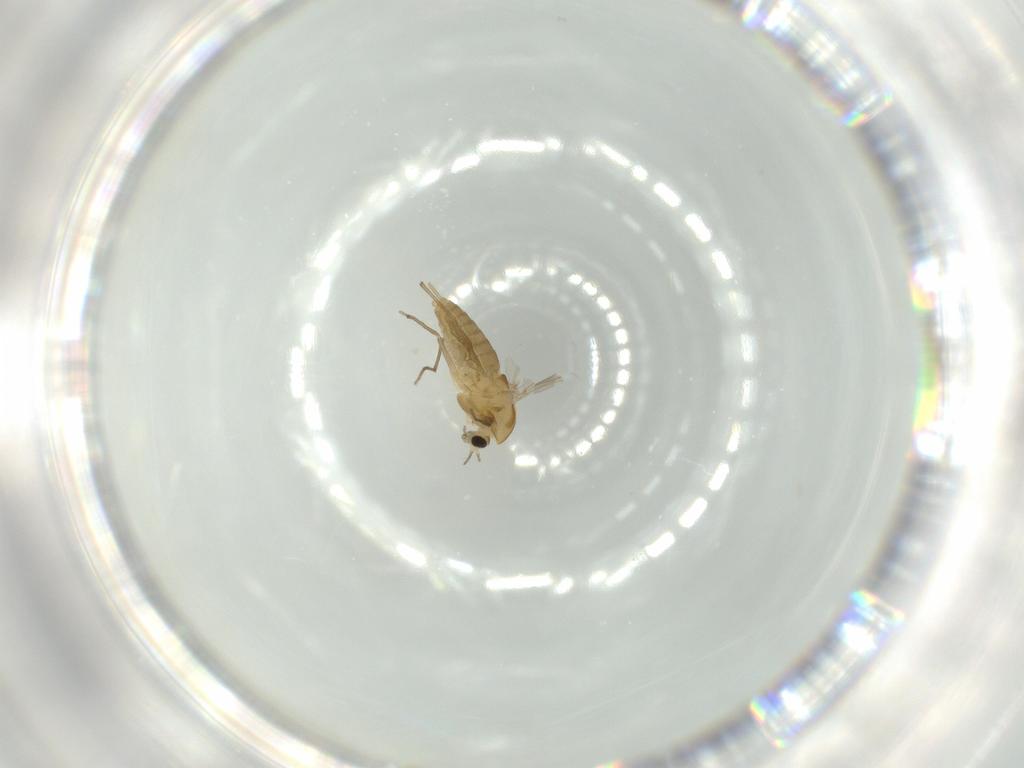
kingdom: Animalia
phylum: Arthropoda
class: Insecta
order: Diptera
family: Chironomidae
